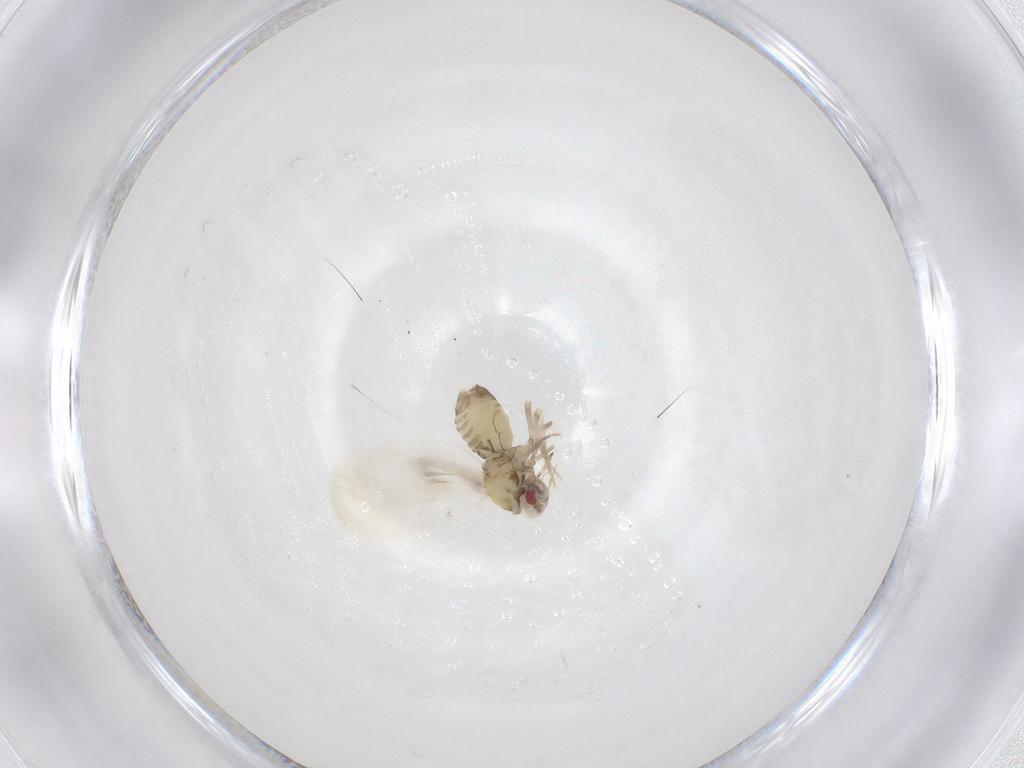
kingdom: Animalia
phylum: Arthropoda
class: Insecta
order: Hemiptera
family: Aleyrodidae
